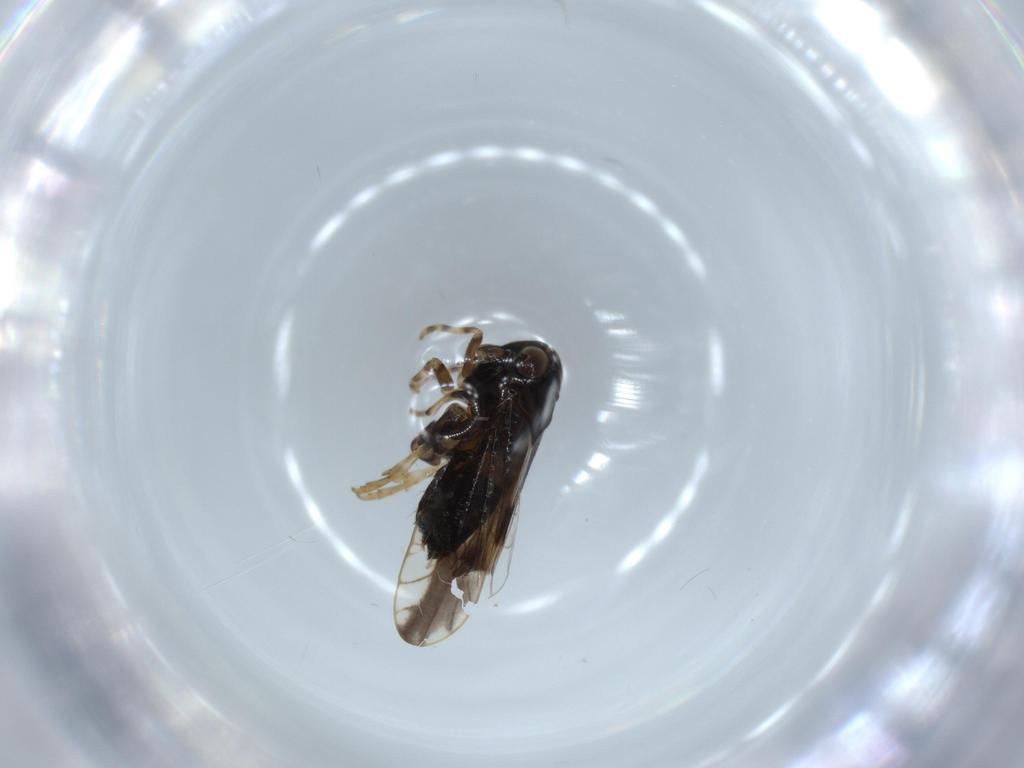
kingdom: Animalia
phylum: Arthropoda
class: Insecta
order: Hemiptera
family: Delphacidae
